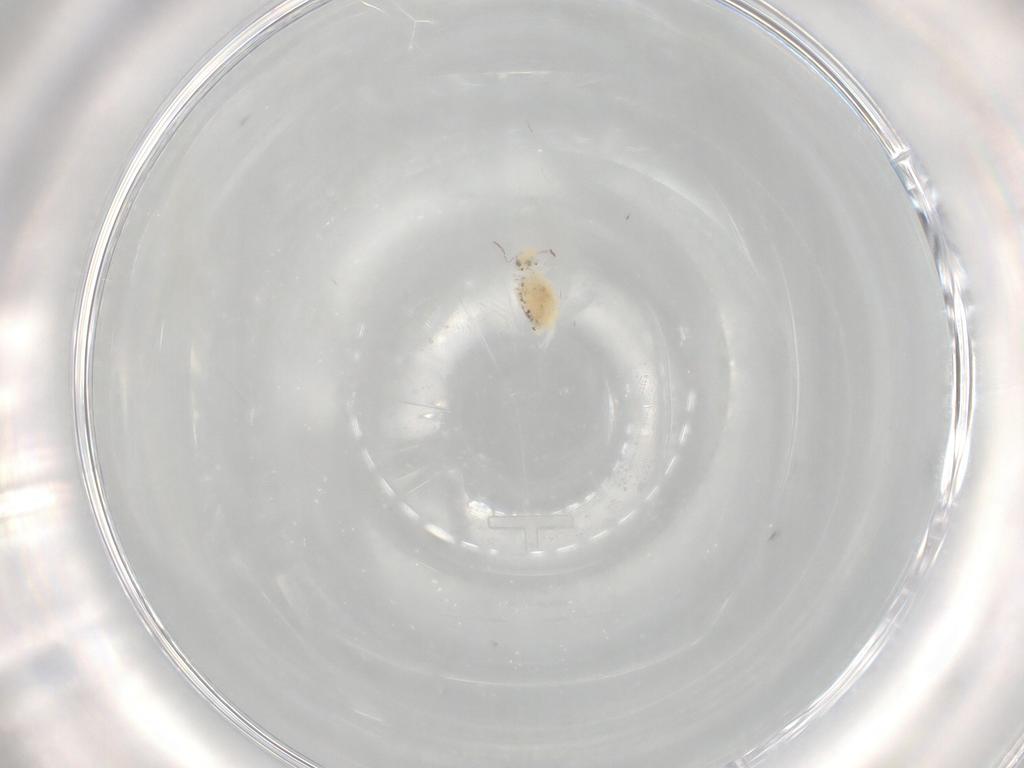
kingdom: Animalia
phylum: Arthropoda
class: Collembola
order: Symphypleona
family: Bourletiellidae
